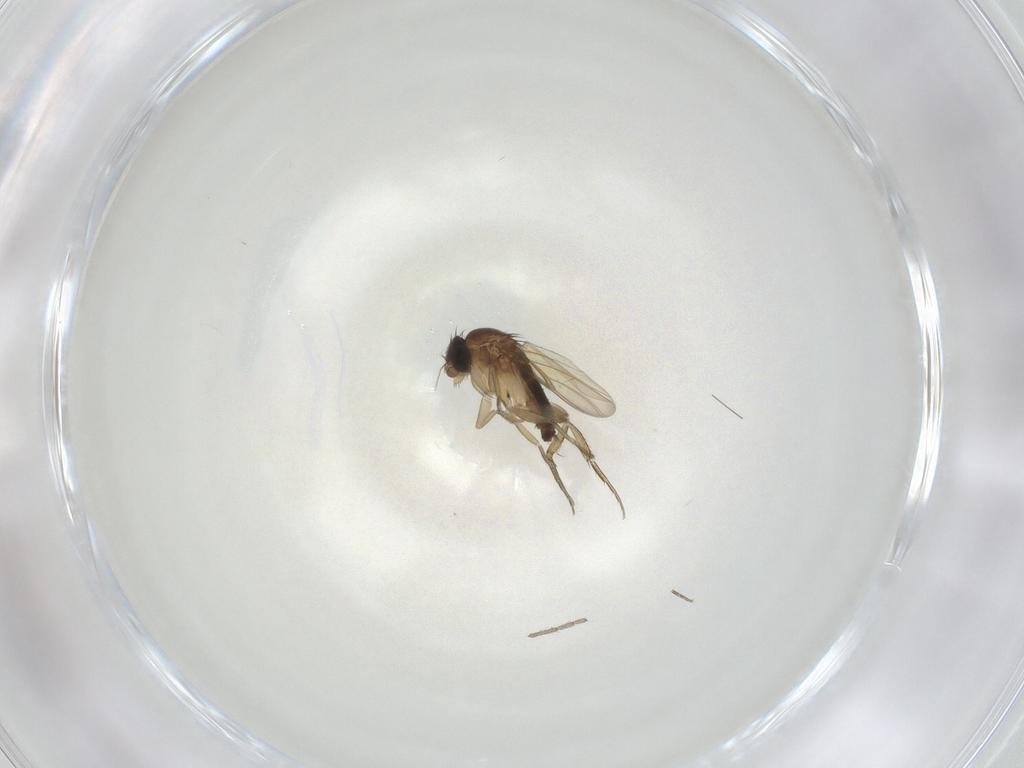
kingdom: Animalia
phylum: Arthropoda
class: Insecta
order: Diptera
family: Phoridae
